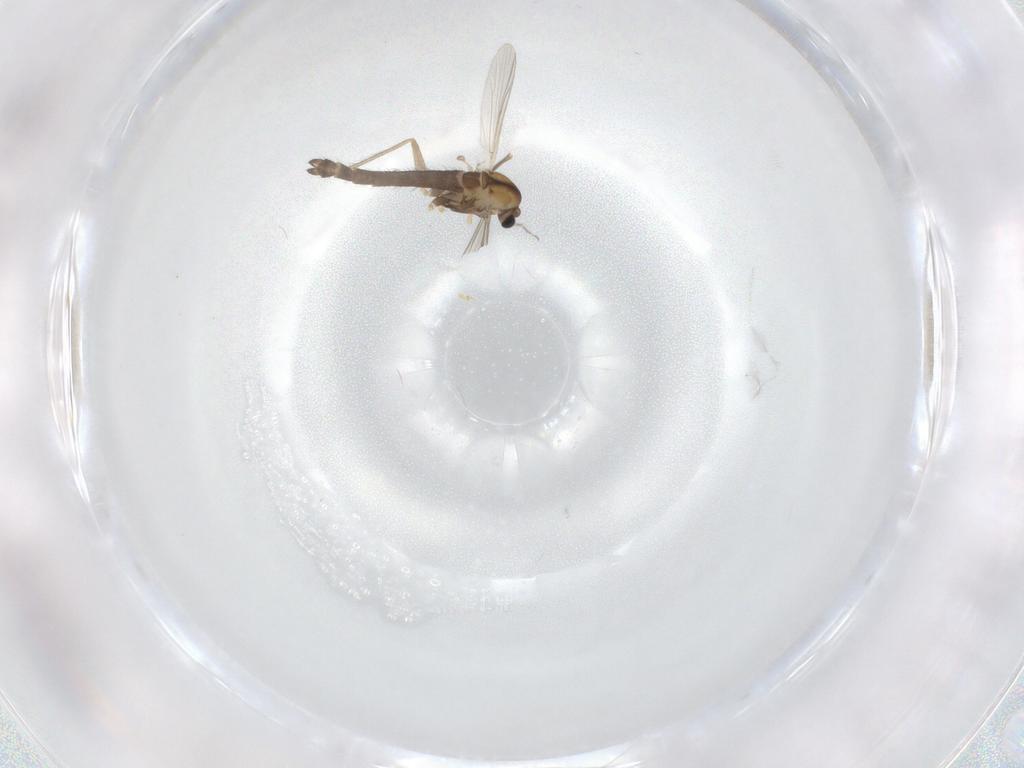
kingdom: Animalia
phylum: Arthropoda
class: Insecta
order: Diptera
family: Chironomidae
